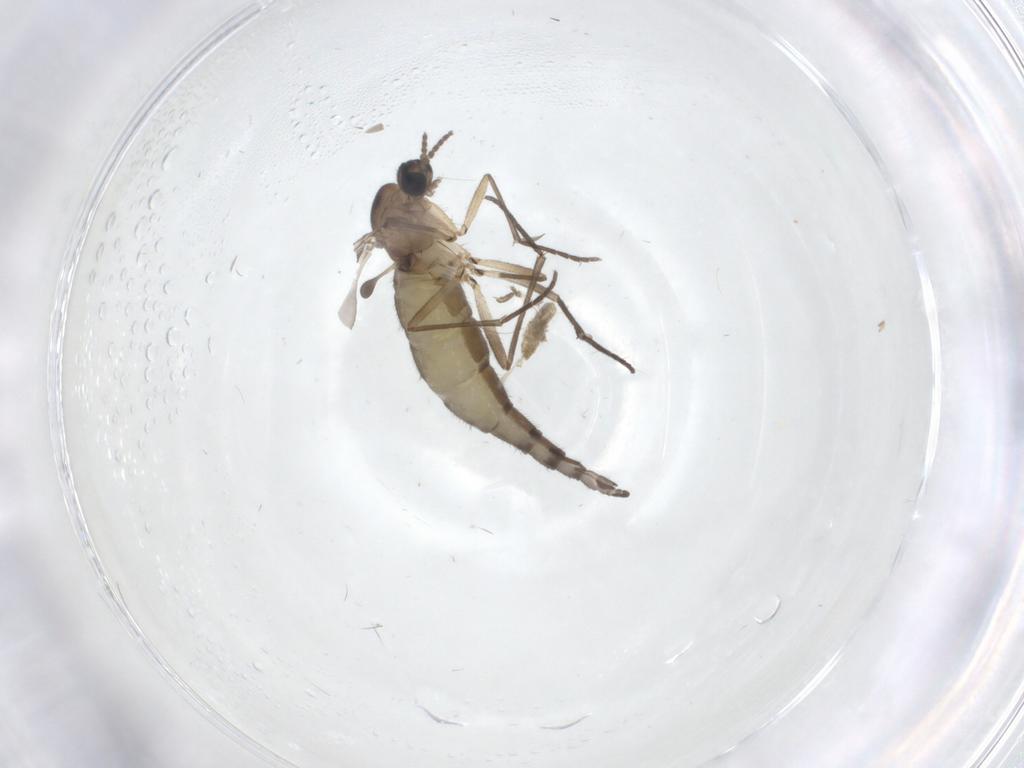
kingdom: Animalia
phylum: Arthropoda
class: Insecta
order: Diptera
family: Sciaridae
